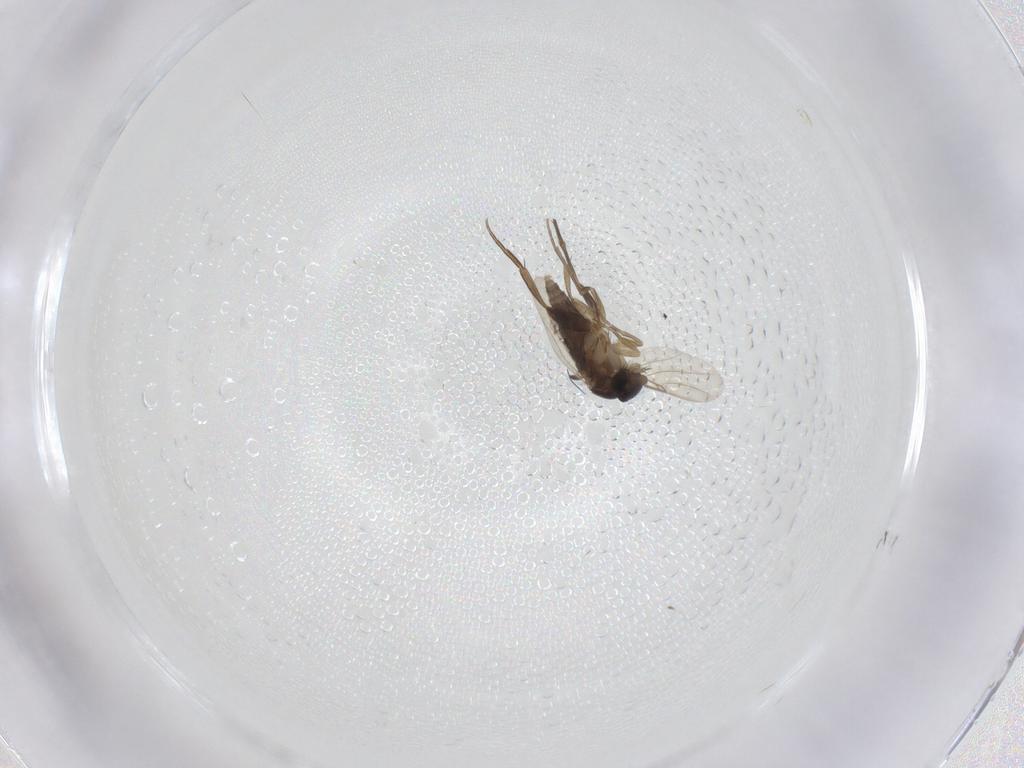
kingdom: Animalia
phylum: Arthropoda
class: Insecta
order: Diptera
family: Phoridae
